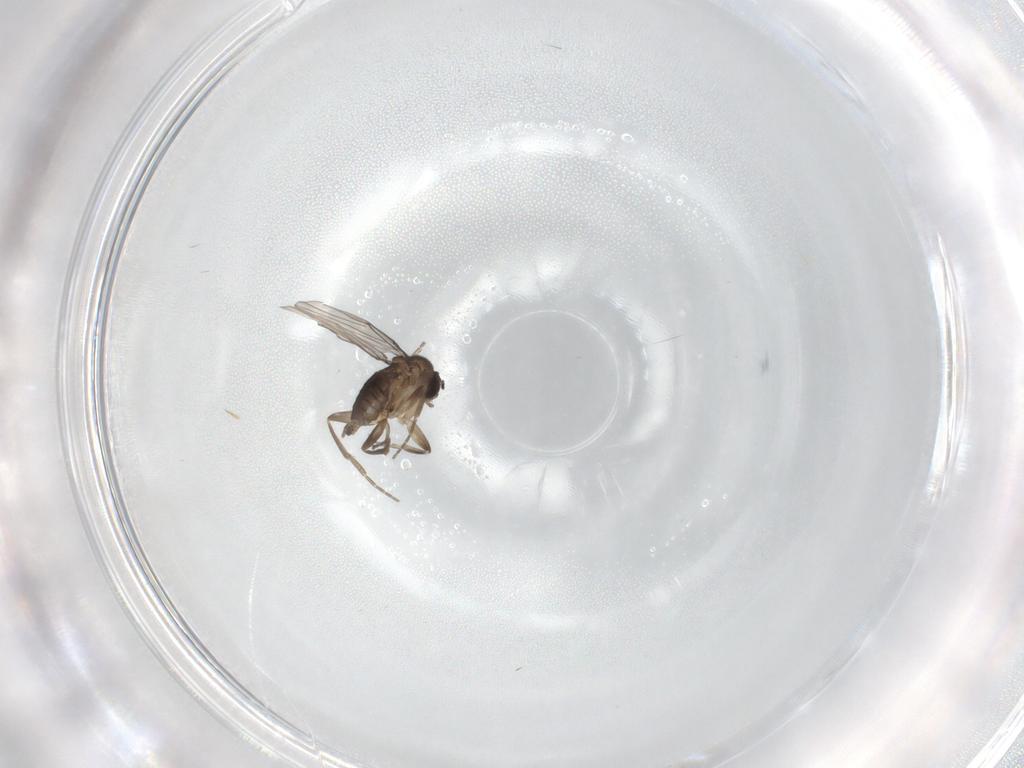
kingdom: Animalia
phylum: Arthropoda
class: Insecta
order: Diptera
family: Phoridae
